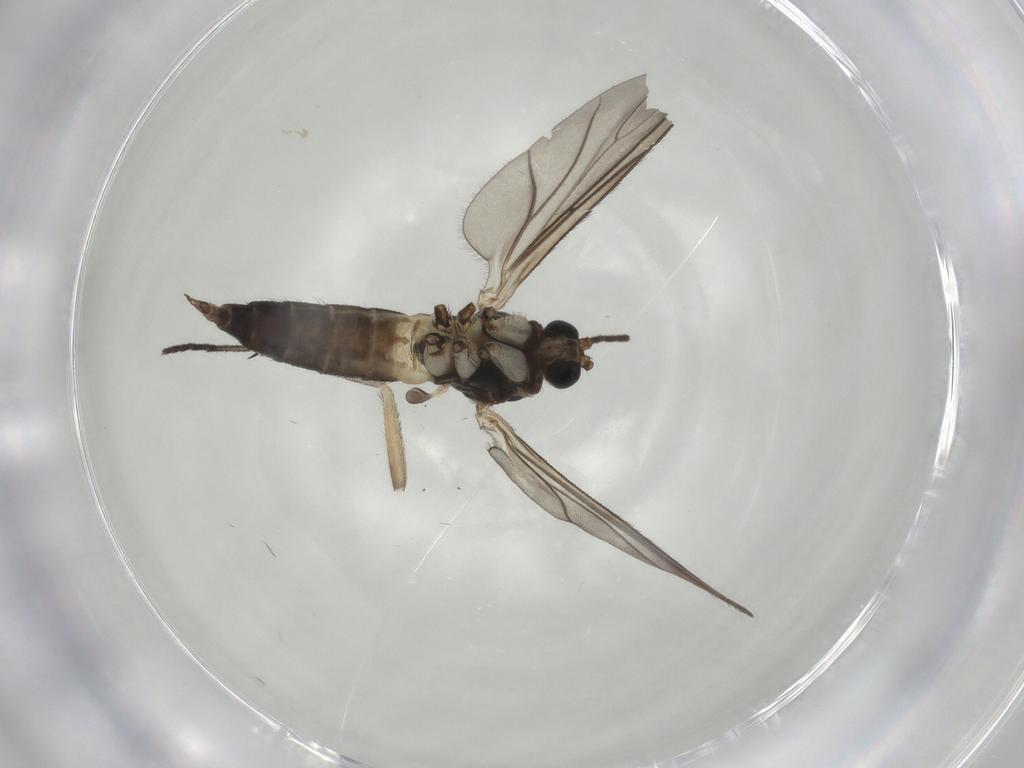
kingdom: Animalia
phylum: Arthropoda
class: Insecta
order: Diptera
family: Sciaridae
